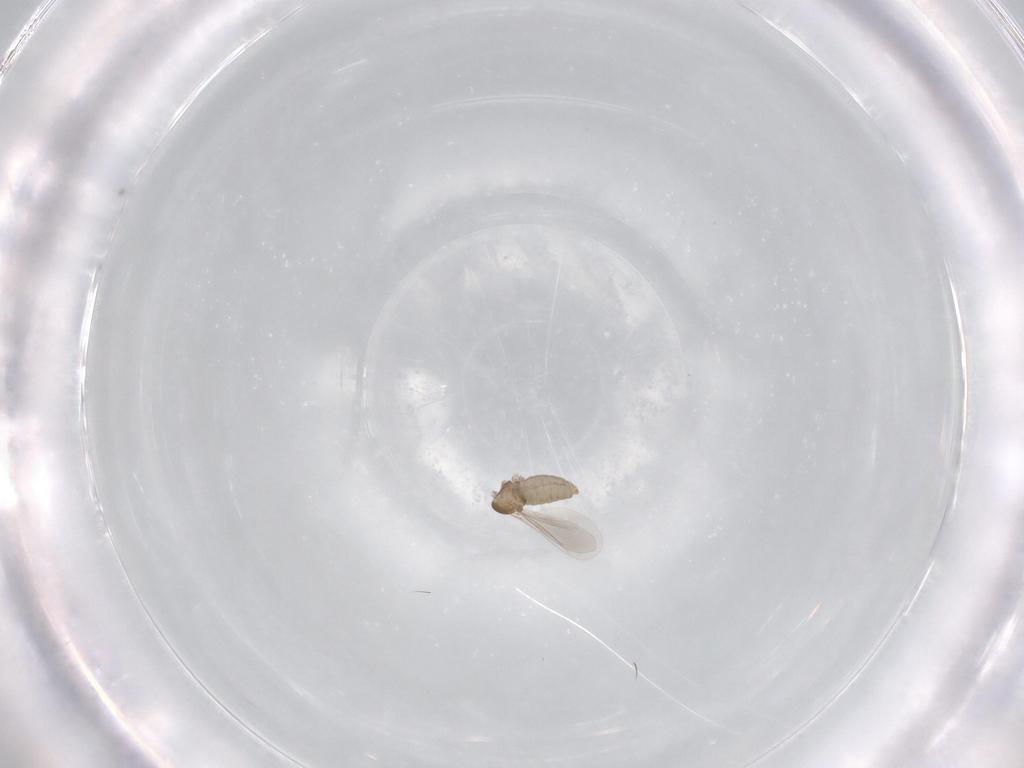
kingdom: Animalia
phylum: Arthropoda
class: Insecta
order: Diptera
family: Cecidomyiidae
